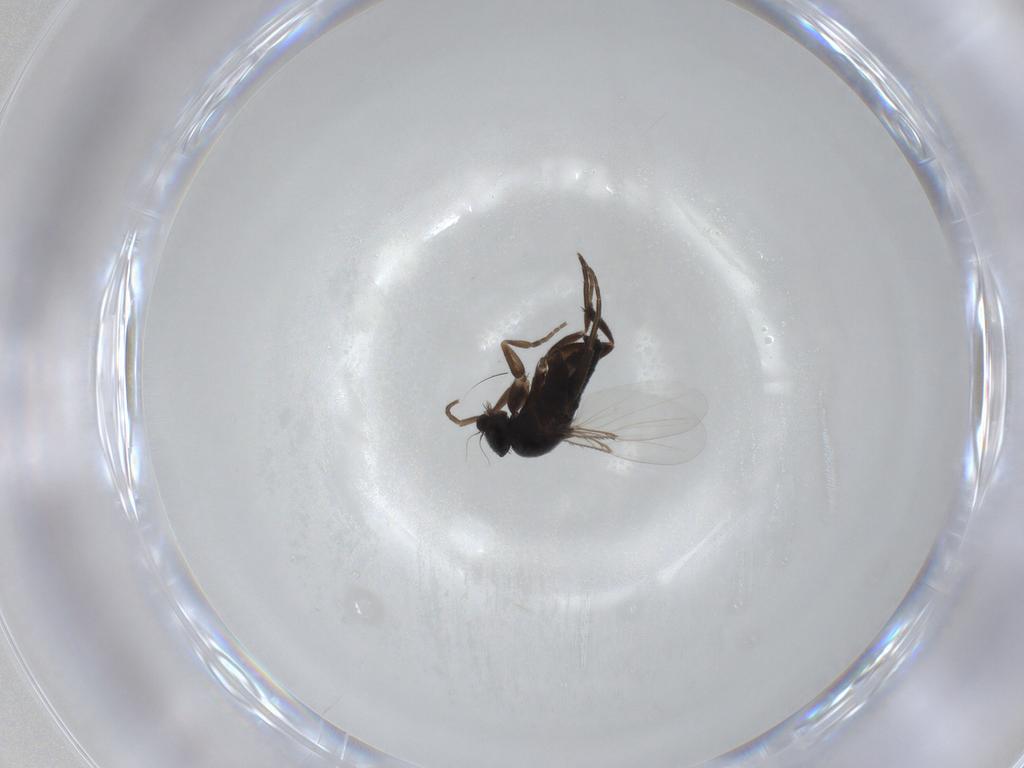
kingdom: Animalia
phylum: Arthropoda
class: Insecta
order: Diptera
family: Phoridae
